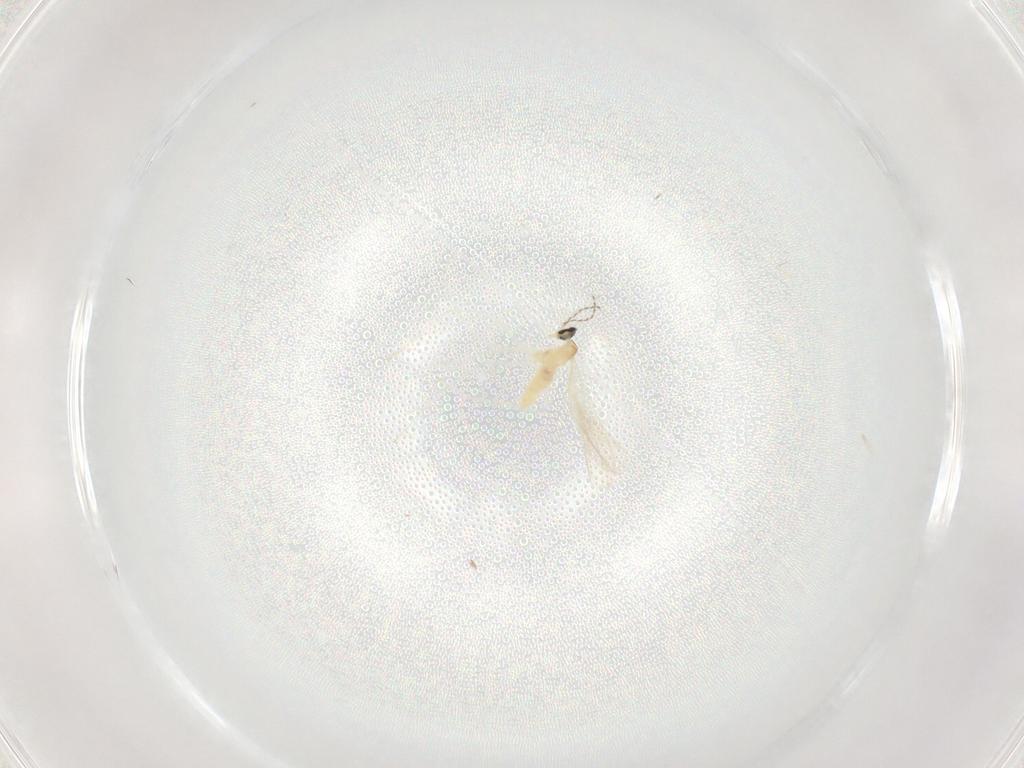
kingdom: Animalia
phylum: Arthropoda
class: Insecta
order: Diptera
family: Cecidomyiidae
